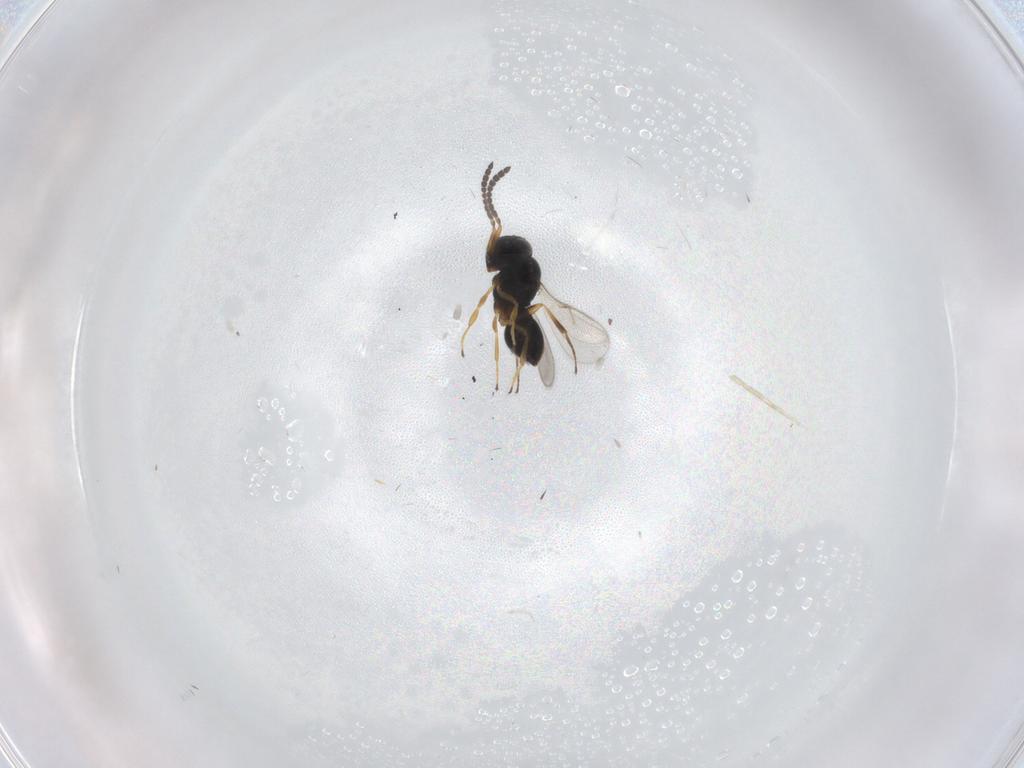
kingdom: Animalia
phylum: Arthropoda
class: Insecta
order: Hymenoptera
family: Scelionidae
